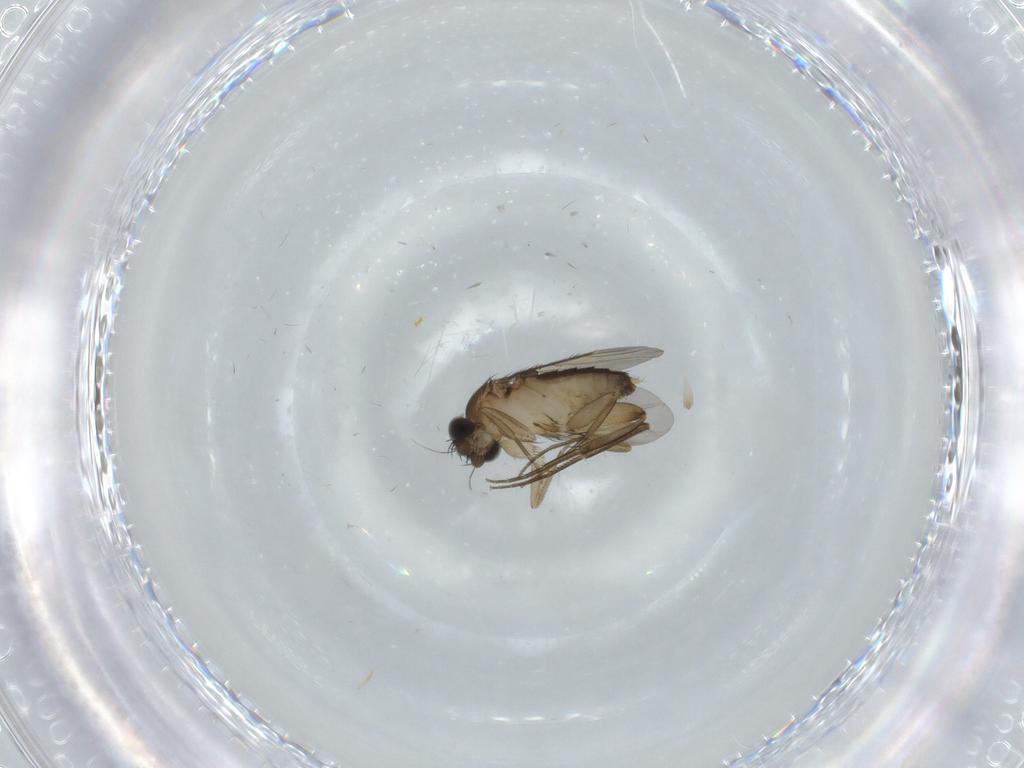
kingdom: Animalia
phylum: Arthropoda
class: Insecta
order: Diptera
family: Phoridae
